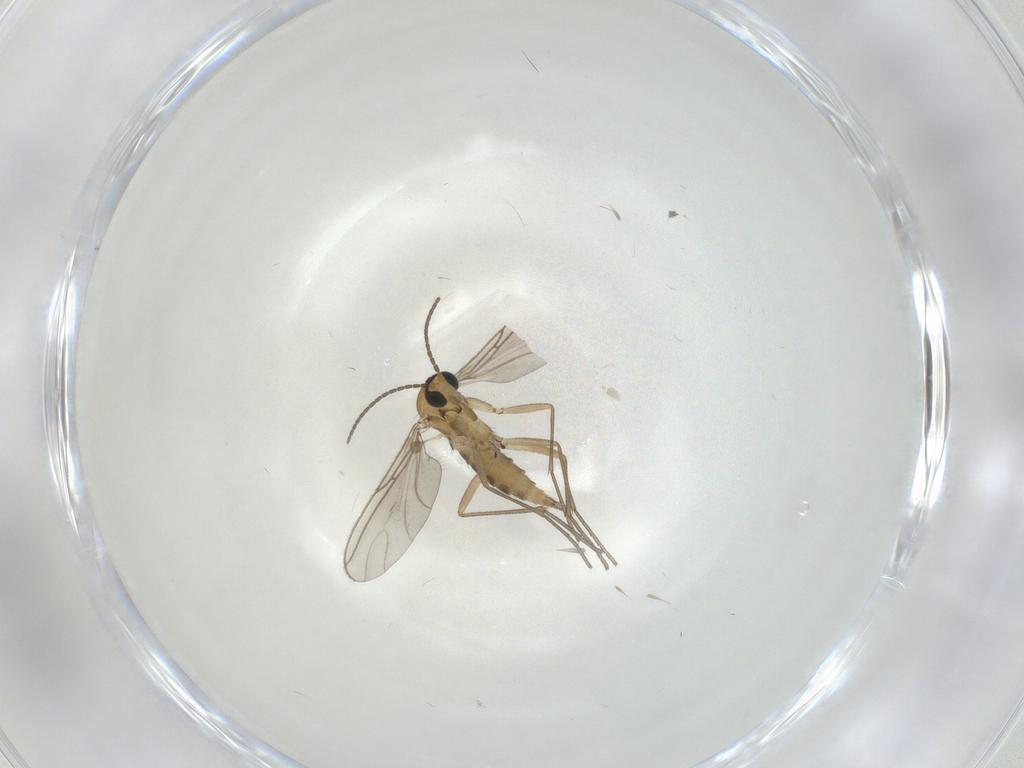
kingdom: Animalia
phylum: Arthropoda
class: Insecta
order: Diptera
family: Sciaridae
